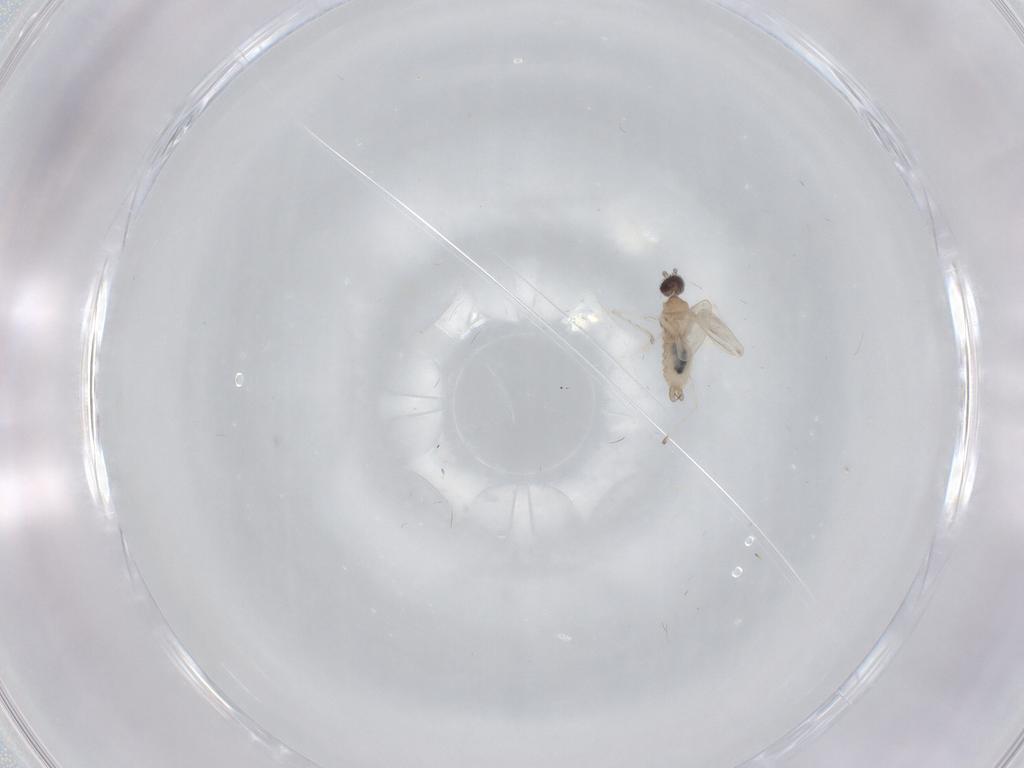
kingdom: Animalia
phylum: Arthropoda
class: Insecta
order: Diptera
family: Cecidomyiidae
